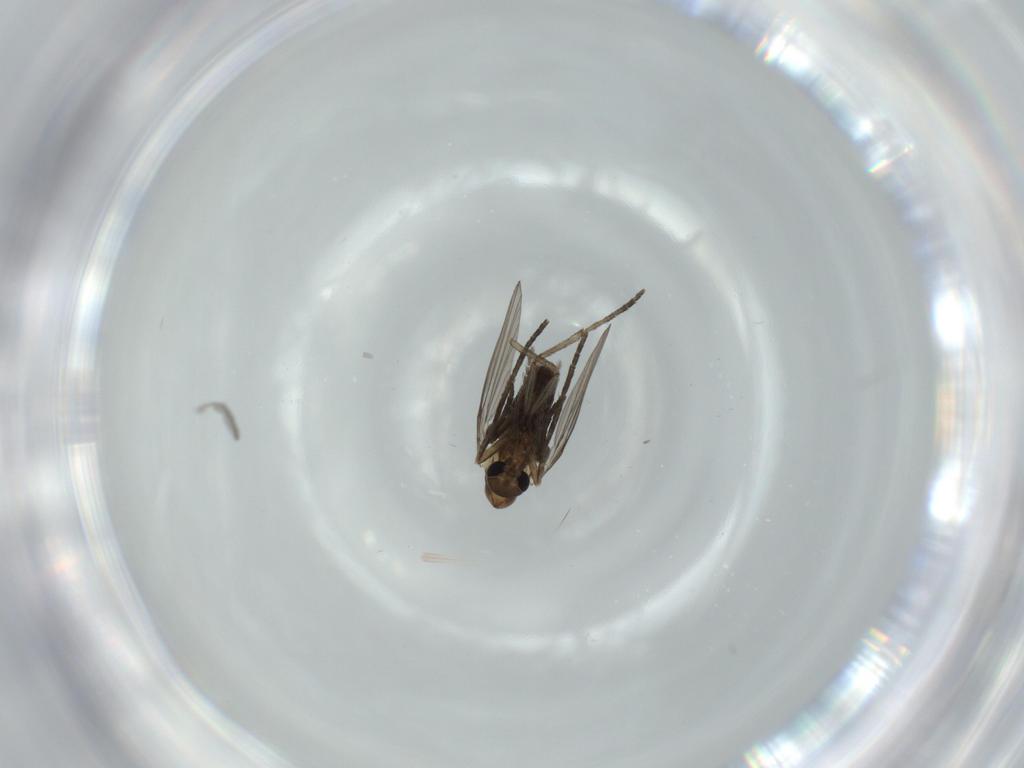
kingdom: Animalia
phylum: Arthropoda
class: Insecta
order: Diptera
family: Psychodidae
